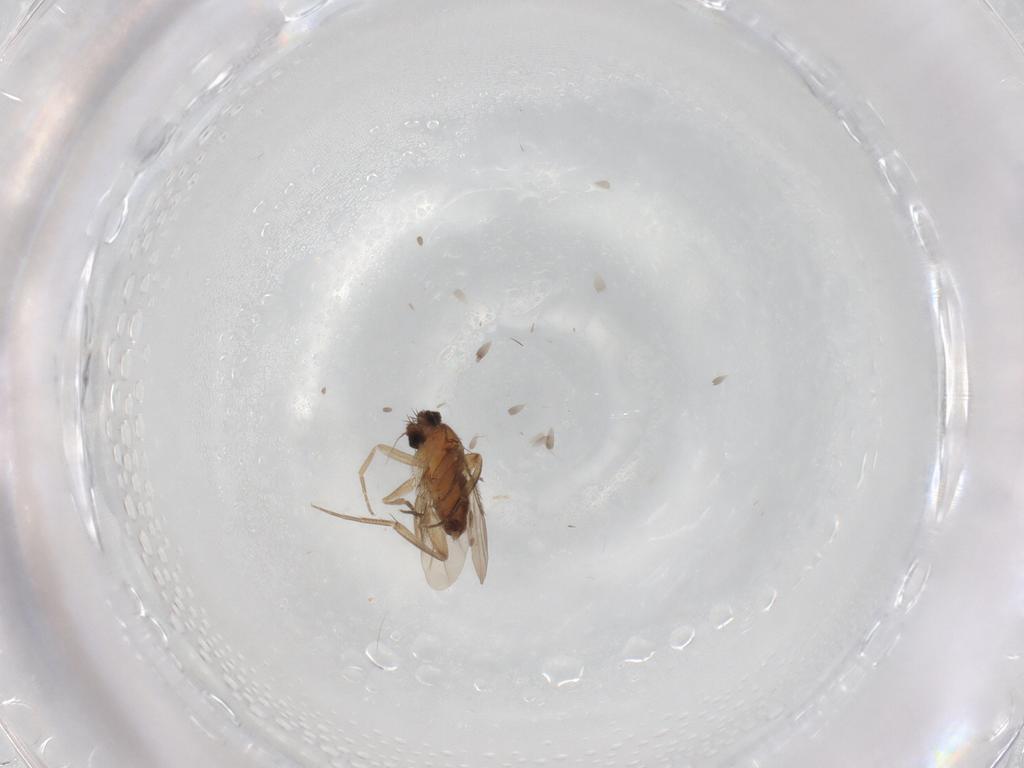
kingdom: Animalia
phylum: Arthropoda
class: Insecta
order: Diptera
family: Phoridae
